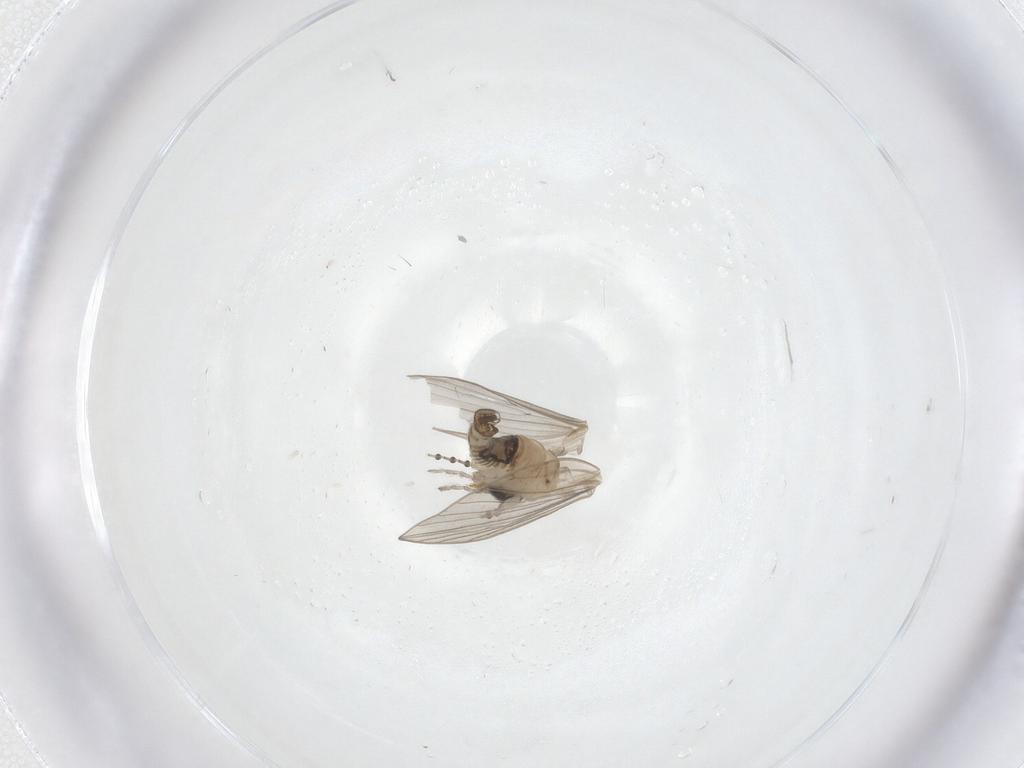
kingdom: Animalia
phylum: Arthropoda
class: Insecta
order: Diptera
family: Psychodidae
